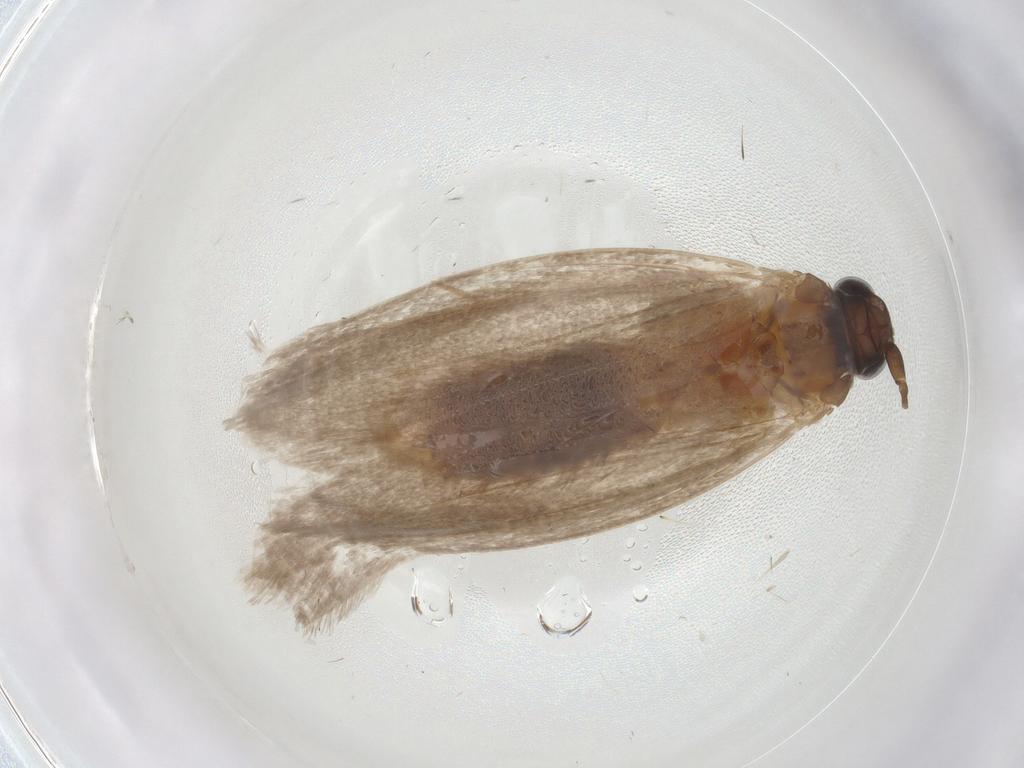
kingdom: Animalia
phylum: Arthropoda
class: Insecta
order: Lepidoptera
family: Roeslerstammiidae
